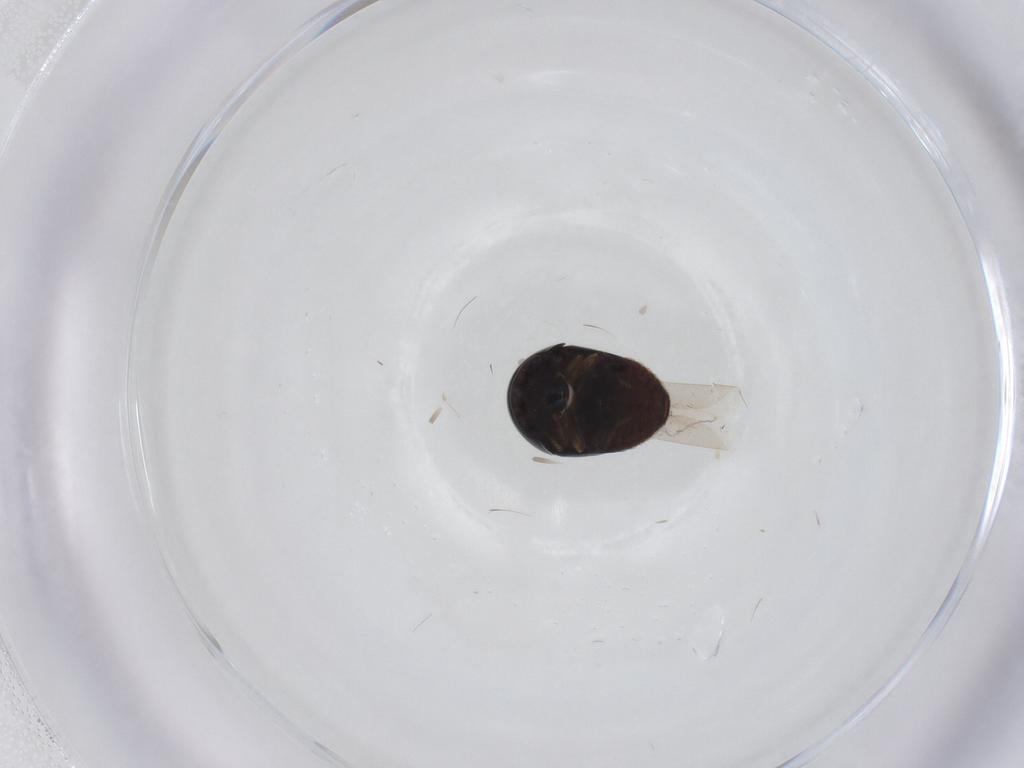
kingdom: Animalia
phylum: Arthropoda
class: Insecta
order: Coleoptera
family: Cybocephalidae
